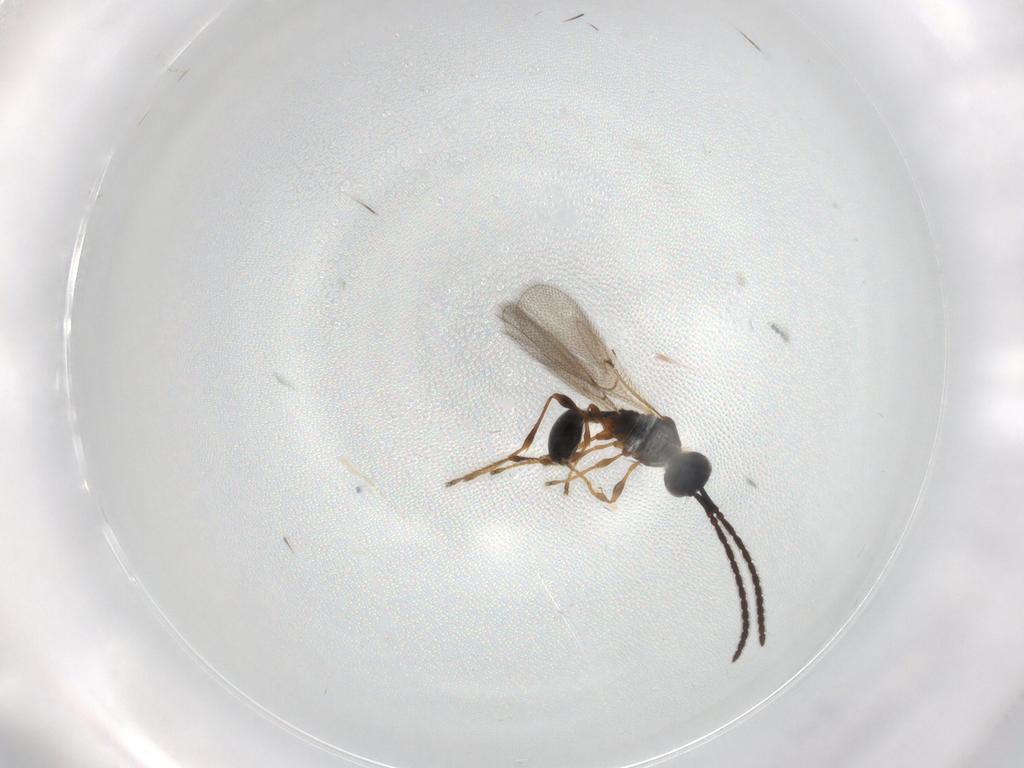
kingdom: Animalia
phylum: Arthropoda
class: Insecta
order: Hymenoptera
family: Diapriidae
